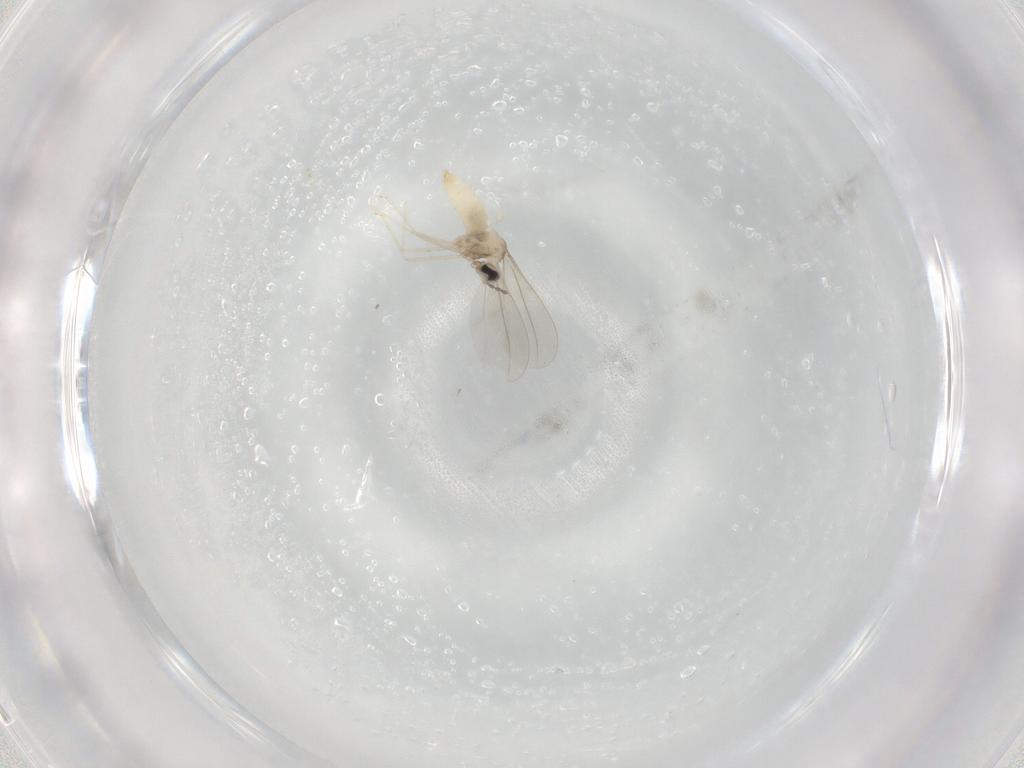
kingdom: Animalia
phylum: Arthropoda
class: Insecta
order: Diptera
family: Cecidomyiidae
